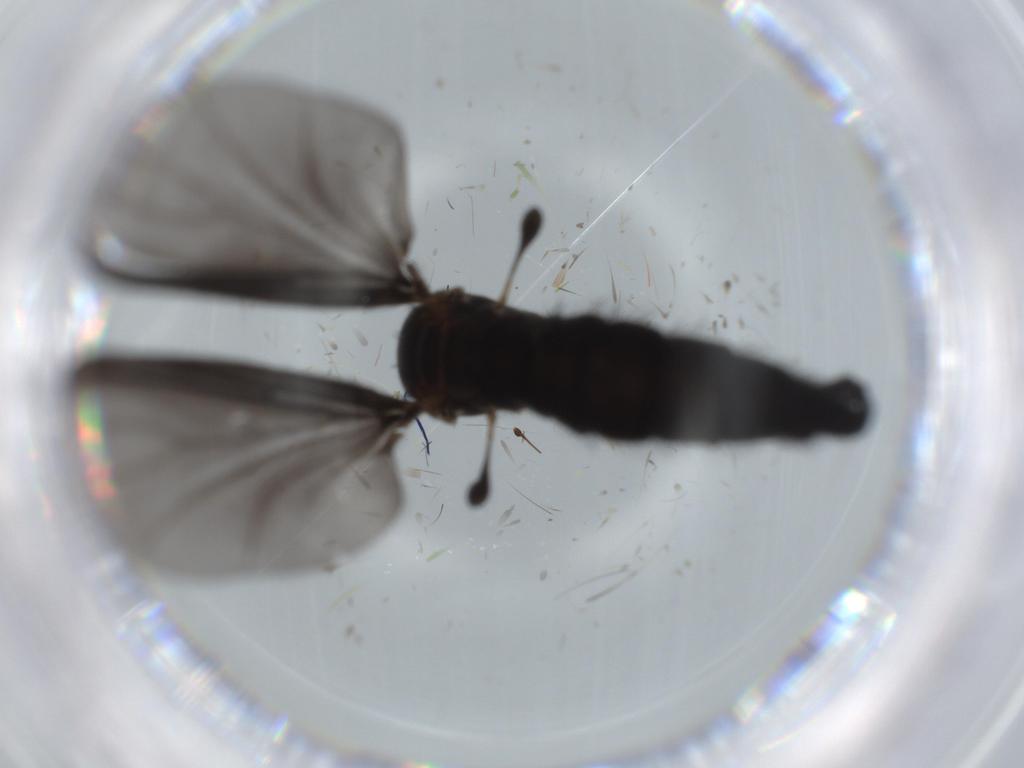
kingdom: Animalia
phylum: Arthropoda
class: Insecta
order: Diptera
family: Sciaridae
